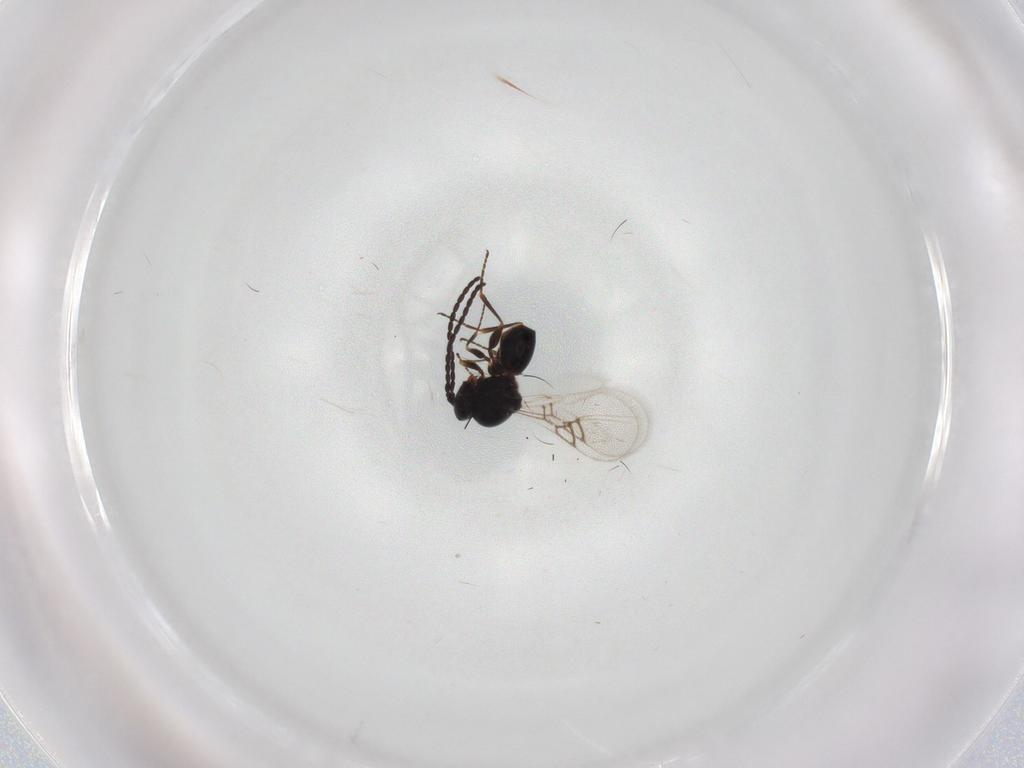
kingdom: Animalia
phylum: Arthropoda
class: Insecta
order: Hymenoptera
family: Figitidae
